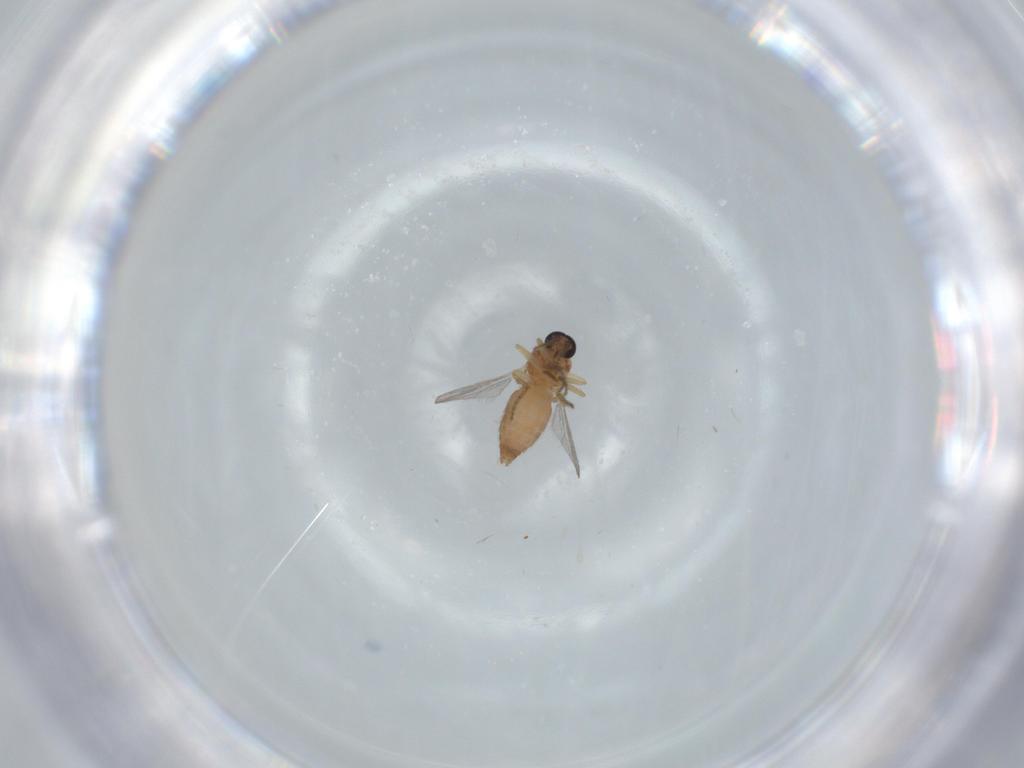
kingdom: Animalia
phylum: Arthropoda
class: Insecta
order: Diptera
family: Ceratopogonidae
